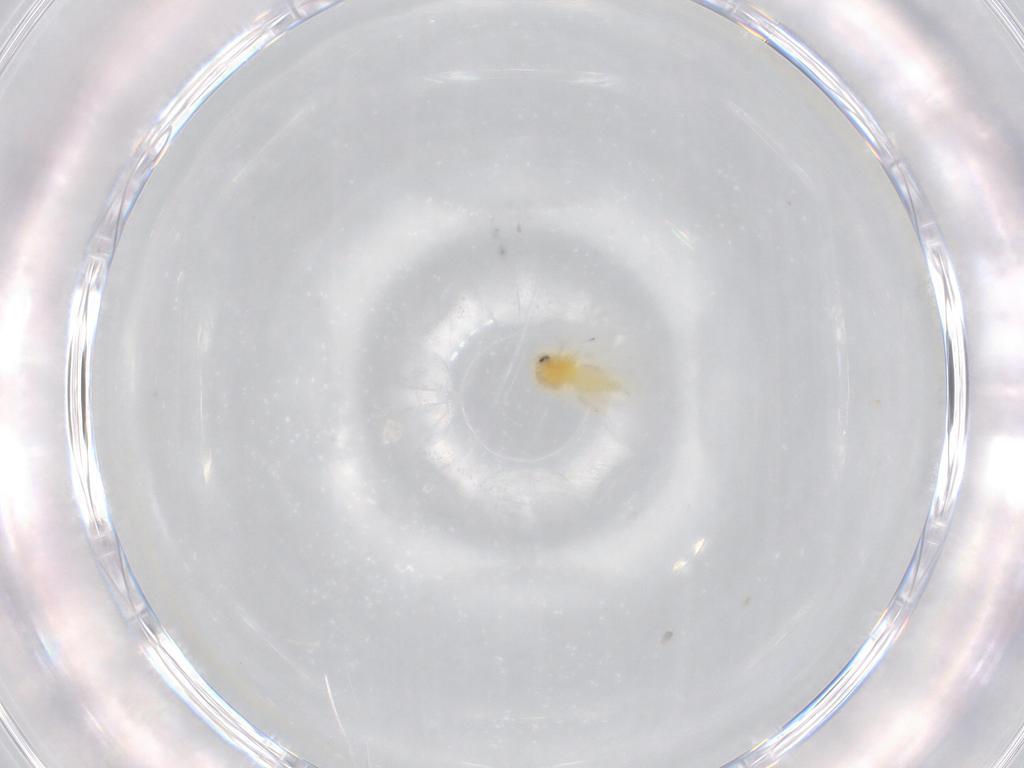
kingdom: Animalia
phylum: Arthropoda
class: Insecta
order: Hemiptera
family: Aleyrodidae
